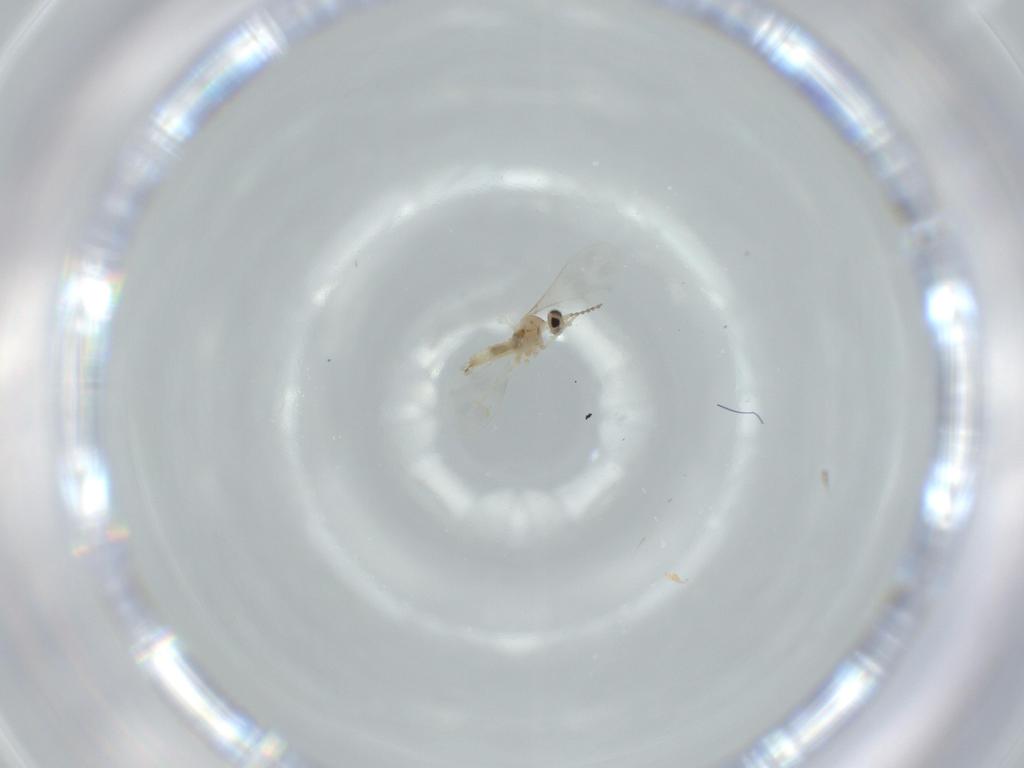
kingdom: Animalia
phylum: Arthropoda
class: Insecta
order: Diptera
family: Cecidomyiidae
